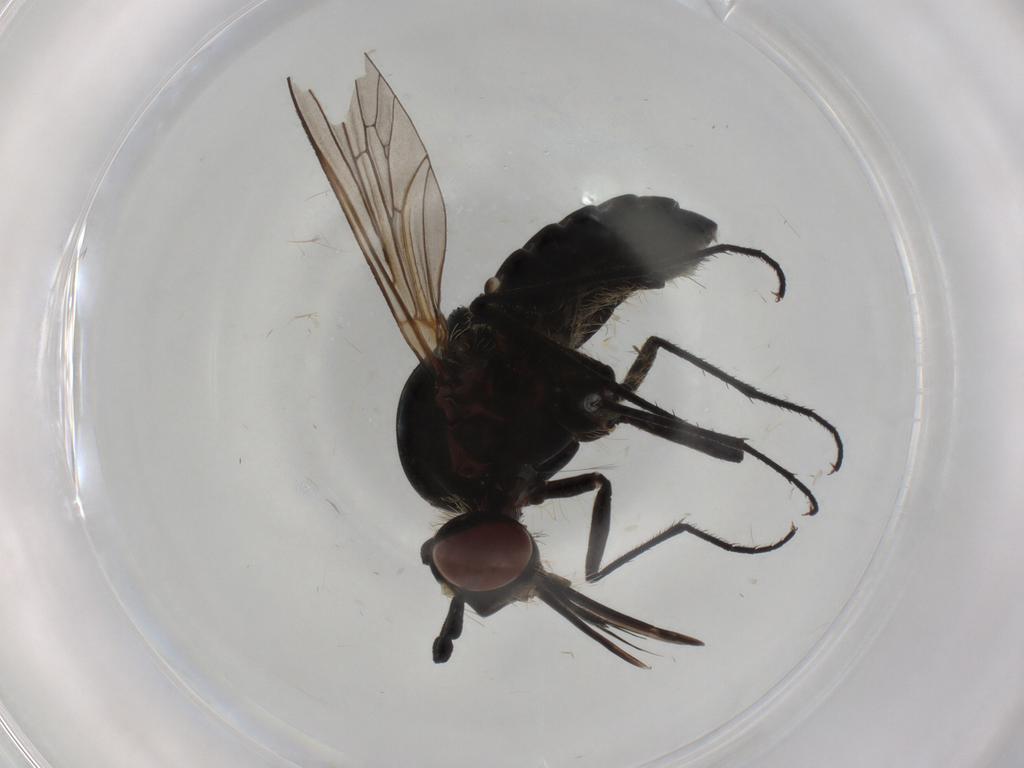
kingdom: Animalia
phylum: Arthropoda
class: Insecta
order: Diptera
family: Bombyliidae
